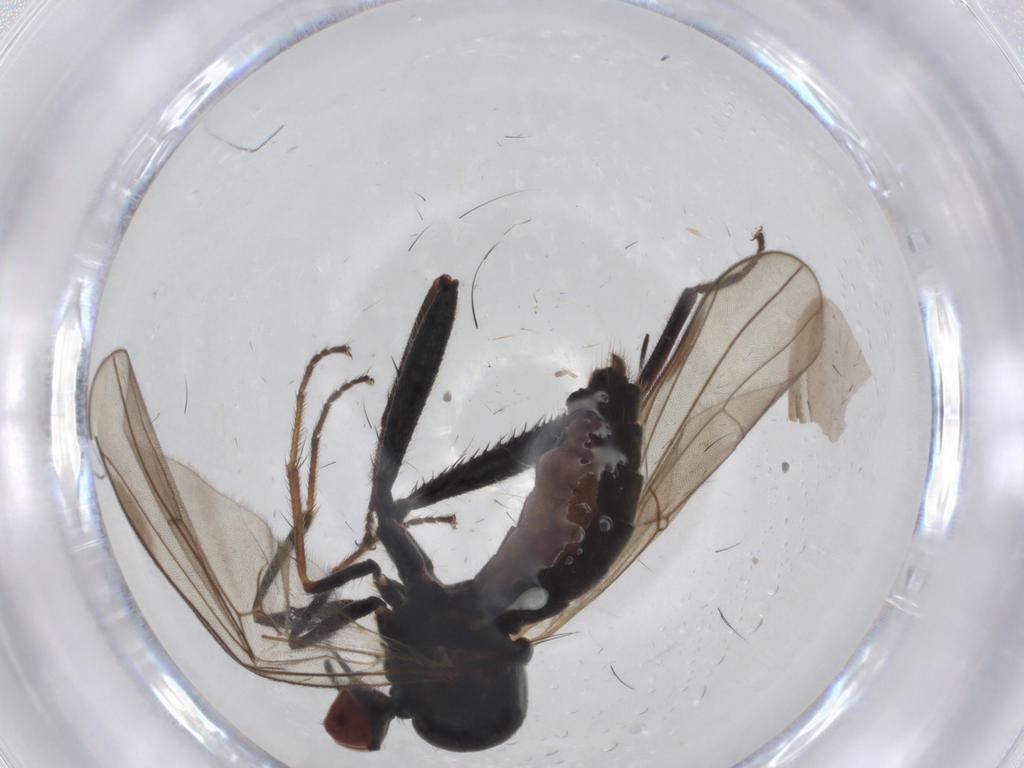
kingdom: Animalia
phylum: Arthropoda
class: Insecta
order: Diptera
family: Hybotidae
